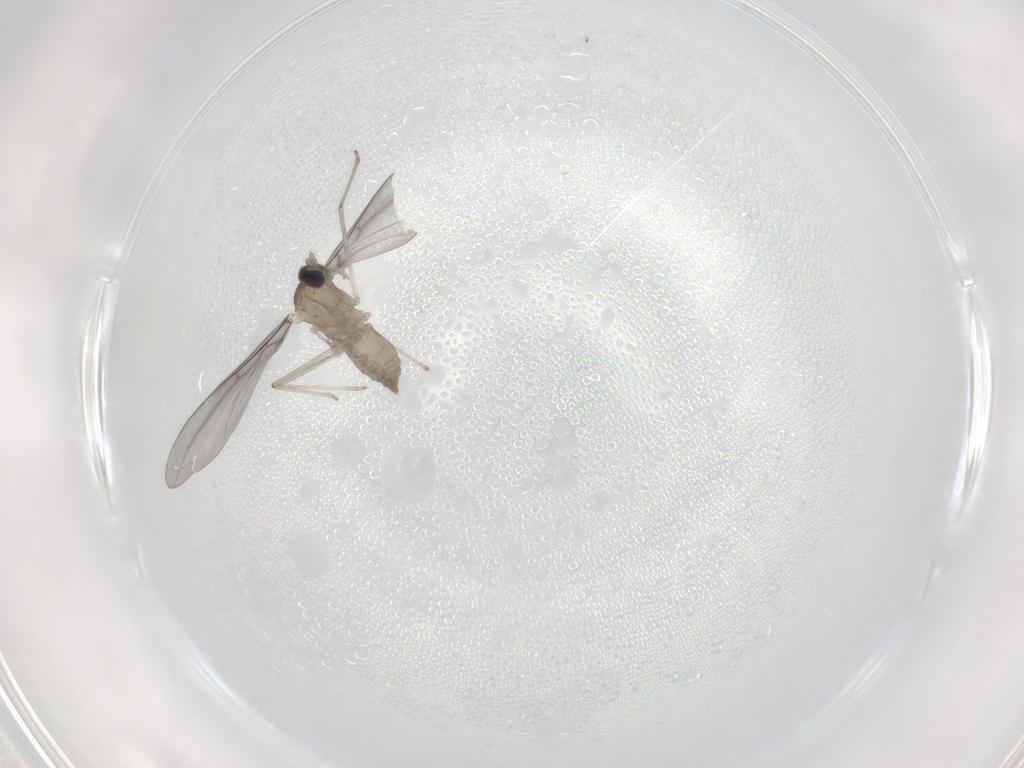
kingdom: Animalia
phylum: Arthropoda
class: Insecta
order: Diptera
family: Cecidomyiidae
